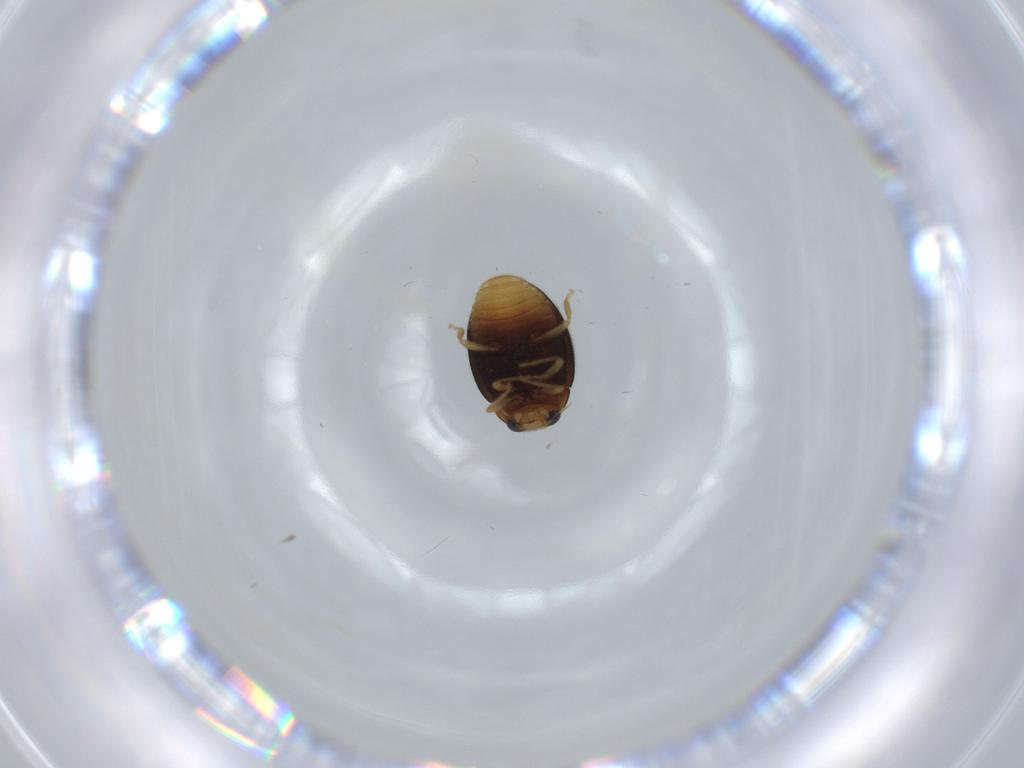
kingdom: Animalia
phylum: Arthropoda
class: Insecta
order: Coleoptera
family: Coccinellidae
